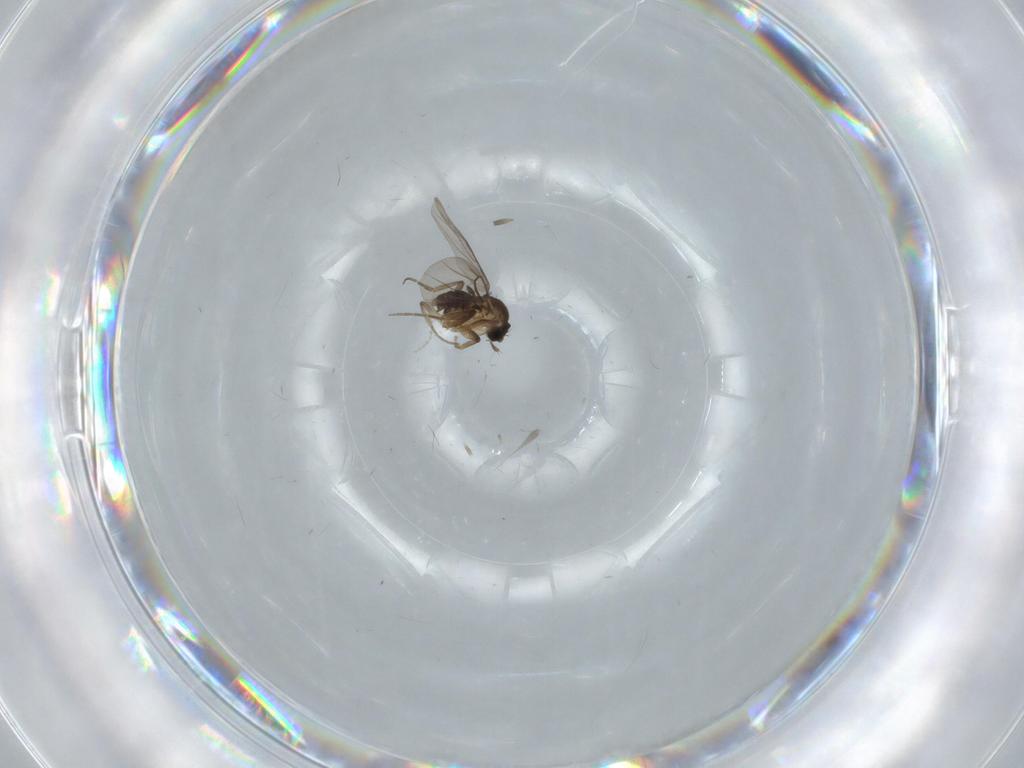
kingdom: Animalia
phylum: Arthropoda
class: Insecta
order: Diptera
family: Phoridae
